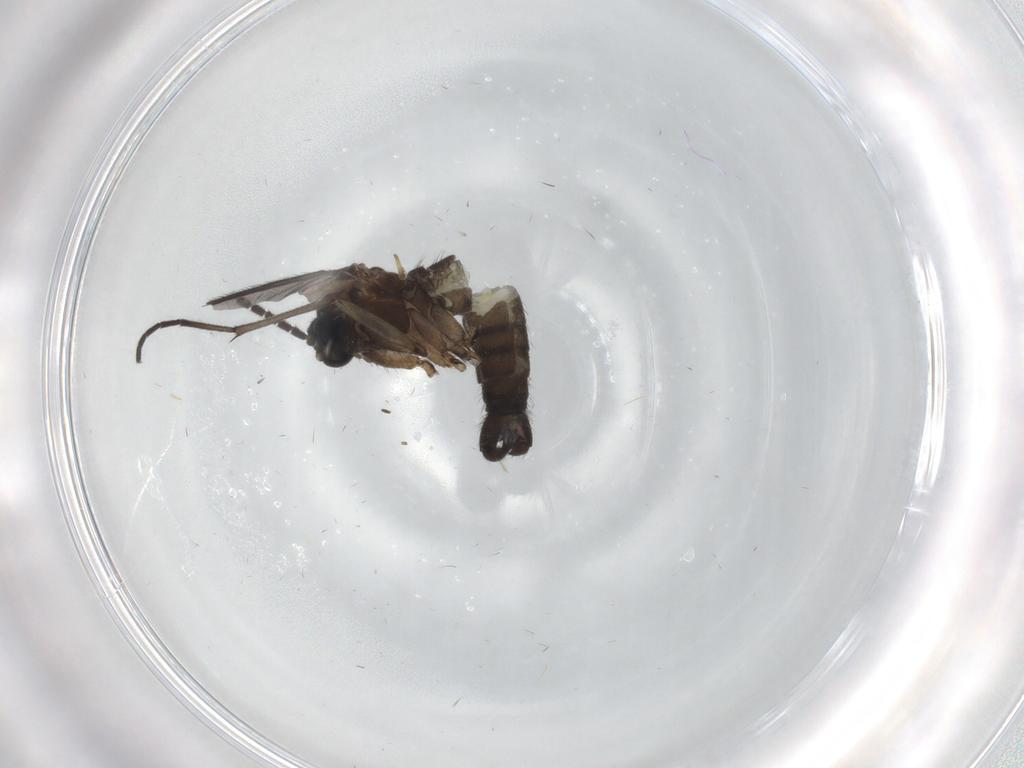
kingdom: Animalia
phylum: Arthropoda
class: Insecta
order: Diptera
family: Sciaridae
